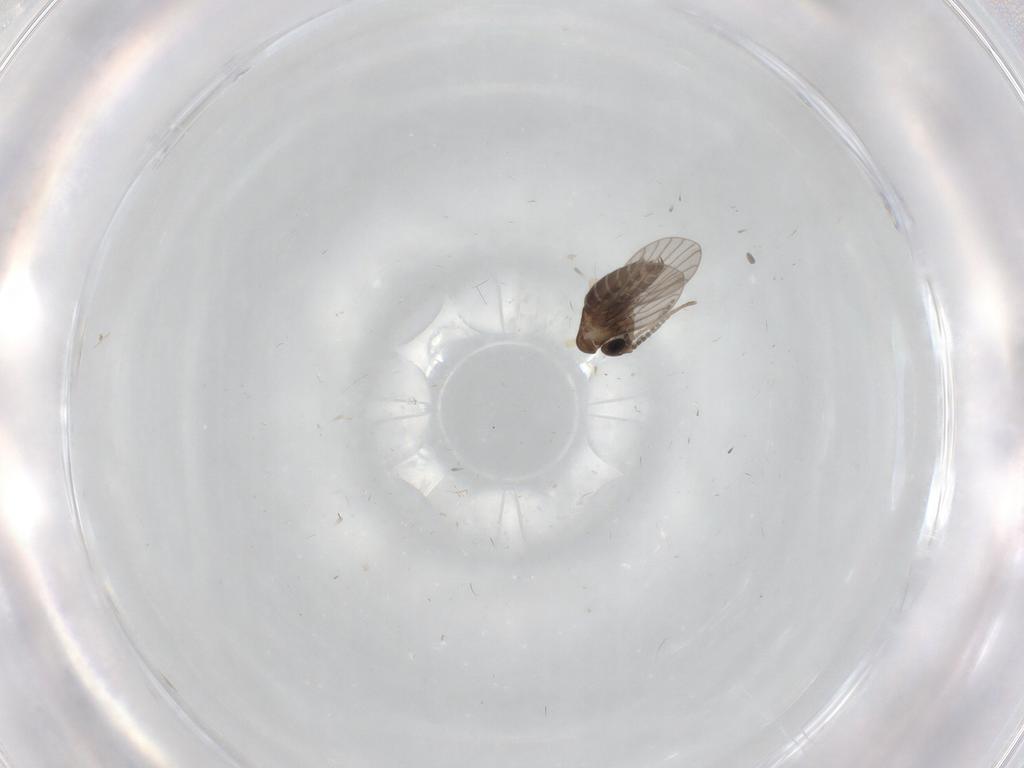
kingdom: Animalia
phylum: Arthropoda
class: Insecta
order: Diptera
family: Cecidomyiidae
